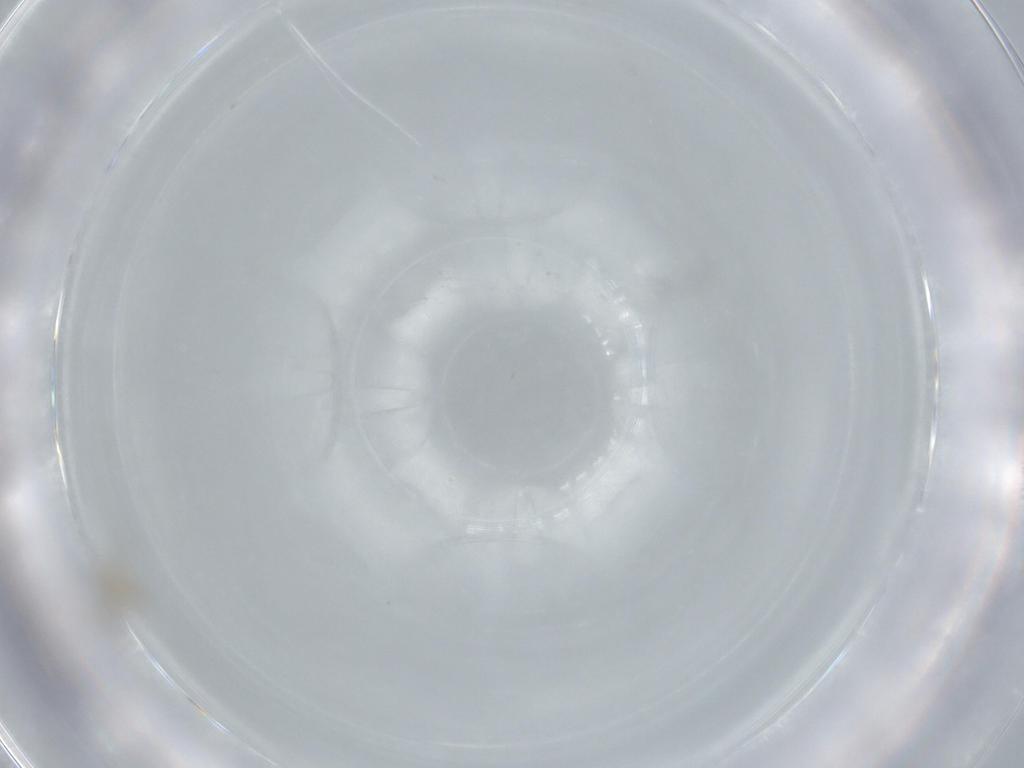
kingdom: Animalia
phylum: Arthropoda
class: Insecta
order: Diptera
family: Cecidomyiidae
